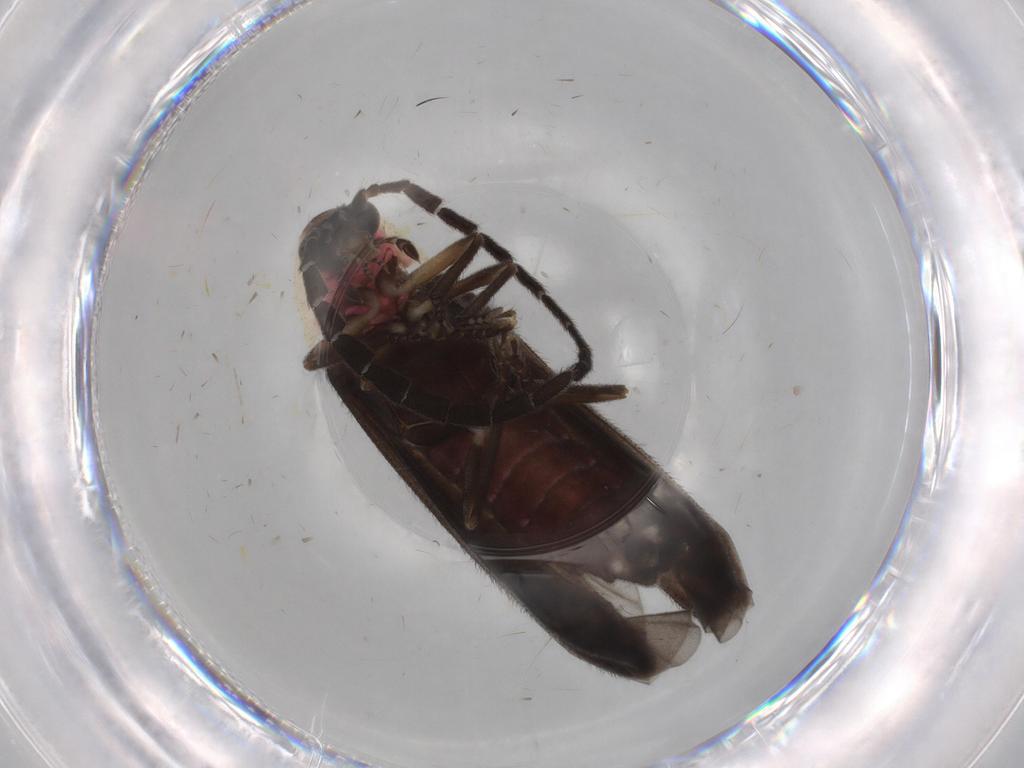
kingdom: Animalia
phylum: Arthropoda
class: Insecta
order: Coleoptera
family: Lampyridae
